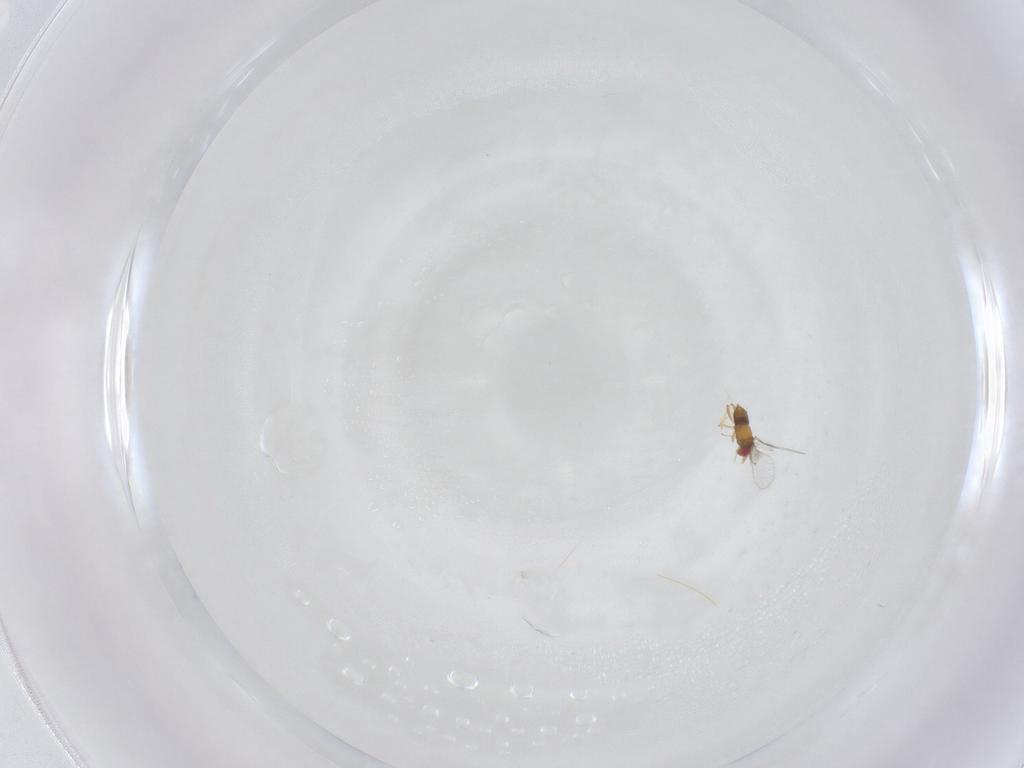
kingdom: Animalia
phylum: Arthropoda
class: Insecta
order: Hymenoptera
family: Trichogrammatidae
